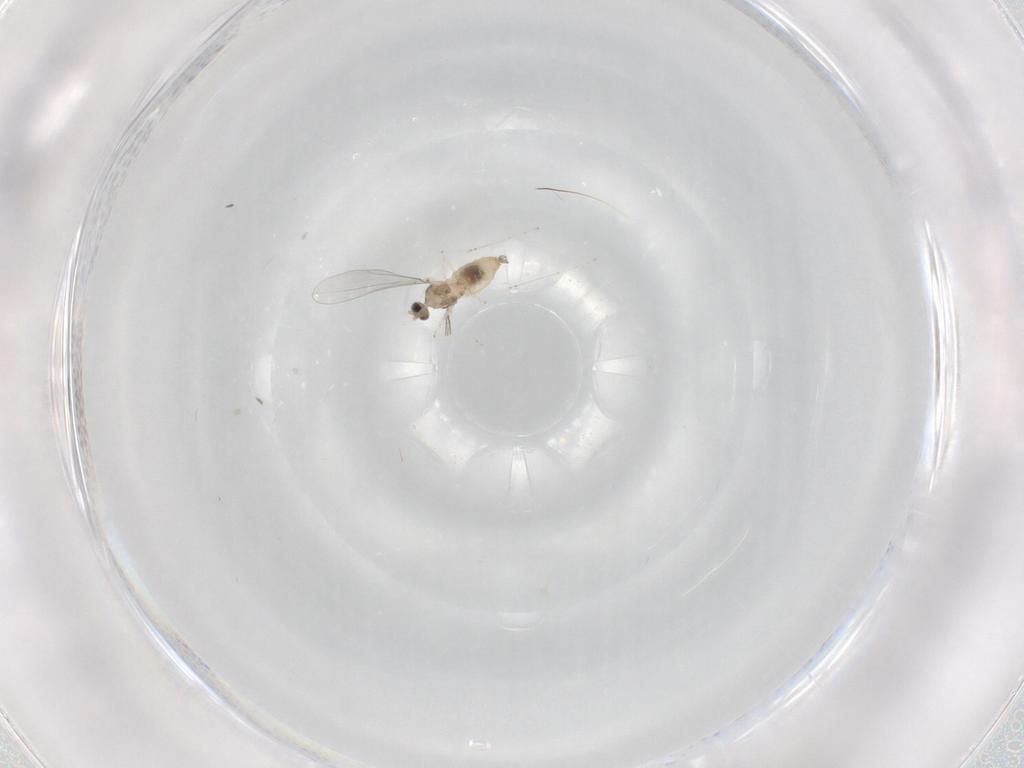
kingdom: Animalia
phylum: Arthropoda
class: Insecta
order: Diptera
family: Cecidomyiidae
